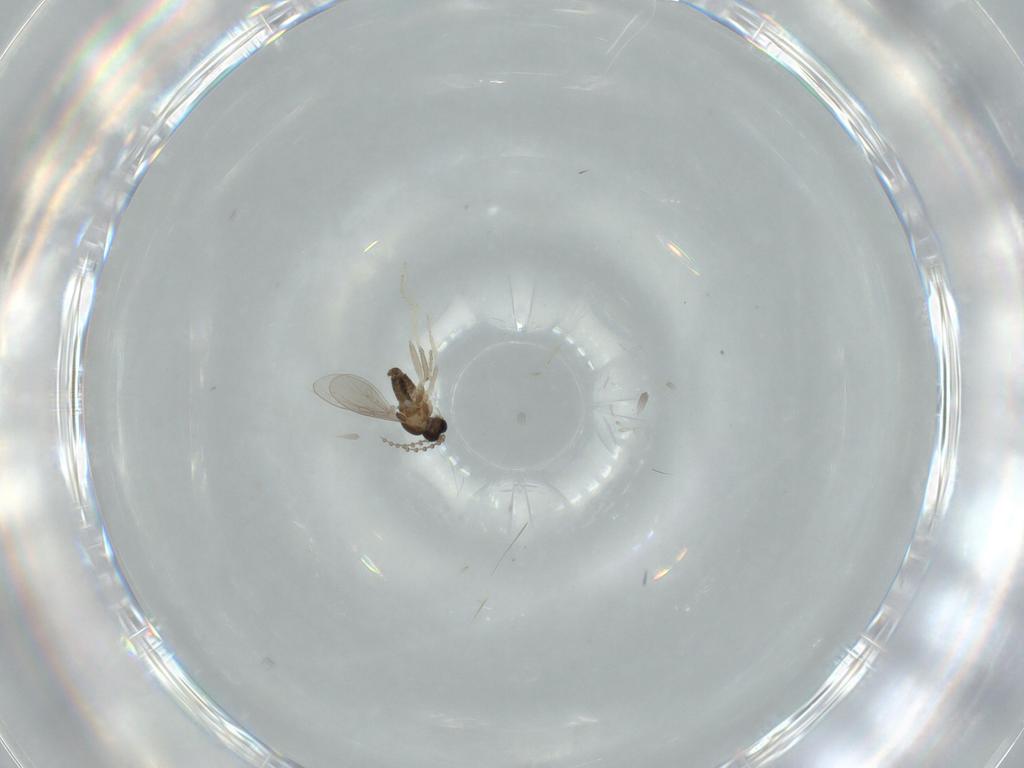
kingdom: Animalia
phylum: Arthropoda
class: Insecta
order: Diptera
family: Cecidomyiidae
